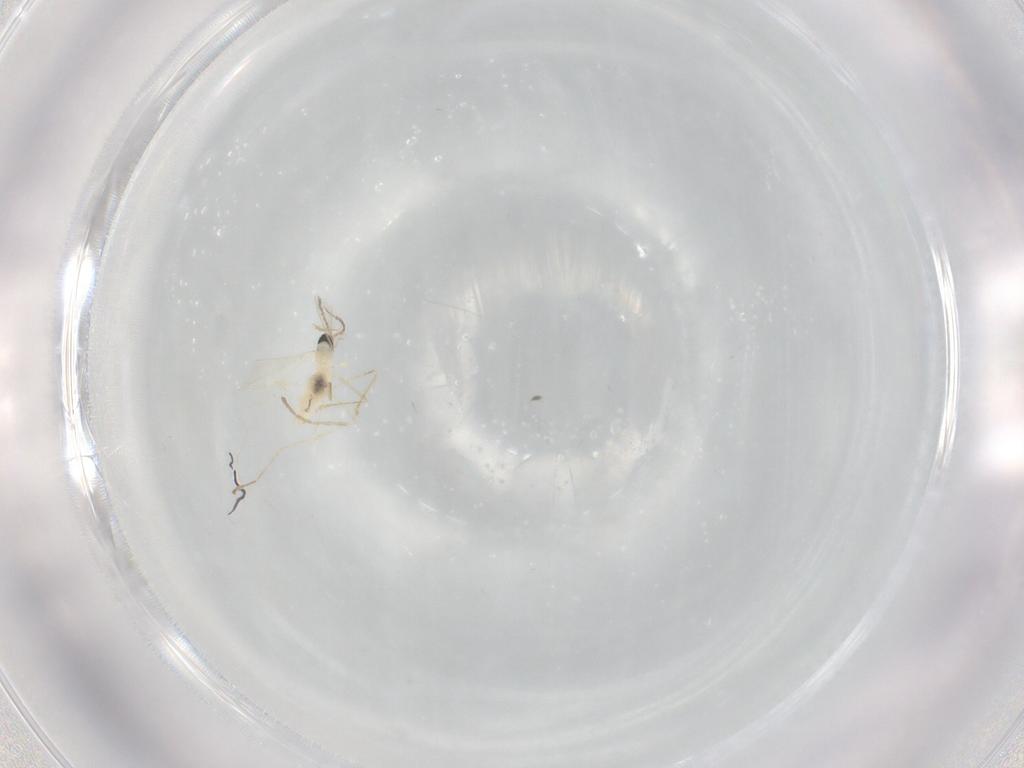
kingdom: Animalia
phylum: Arthropoda
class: Insecta
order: Diptera
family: Cecidomyiidae
